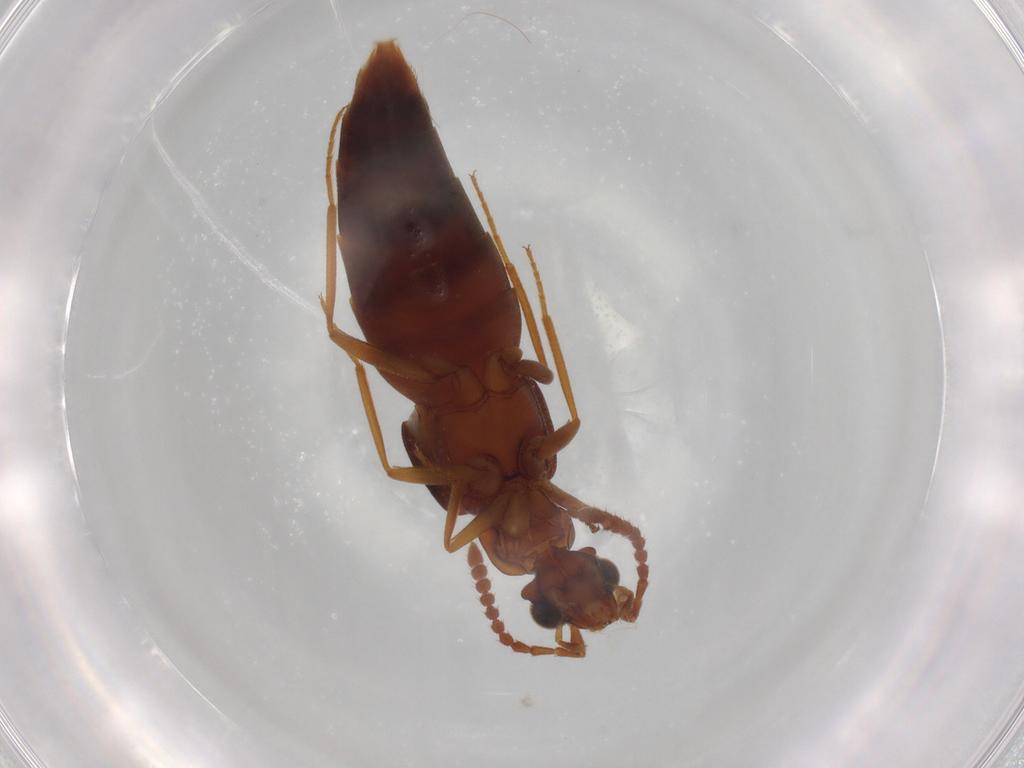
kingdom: Animalia
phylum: Arthropoda
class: Insecta
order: Coleoptera
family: Staphylinidae
